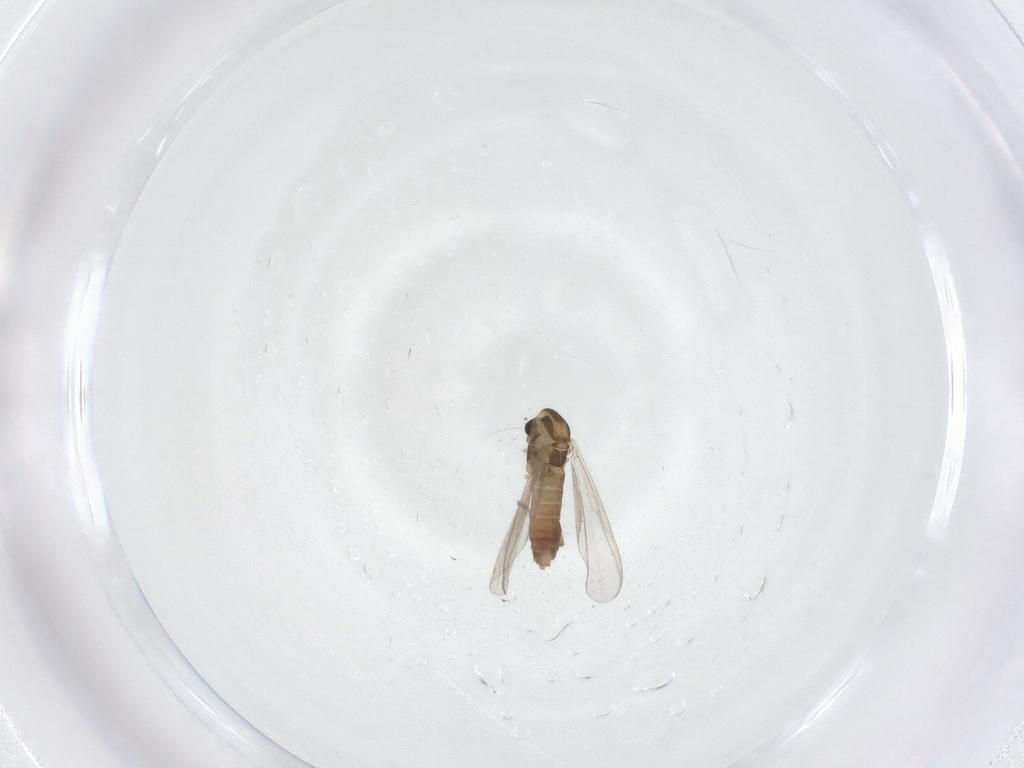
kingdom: Animalia
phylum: Arthropoda
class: Insecta
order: Diptera
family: Chironomidae
